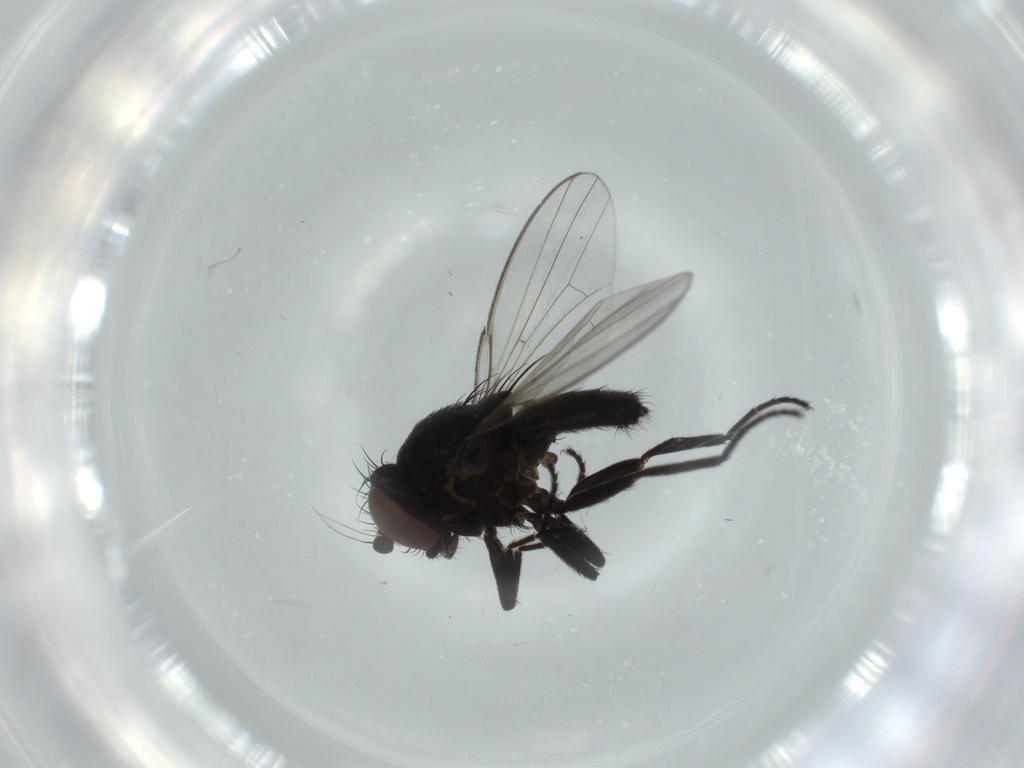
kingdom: Animalia
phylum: Arthropoda
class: Insecta
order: Diptera
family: Milichiidae
